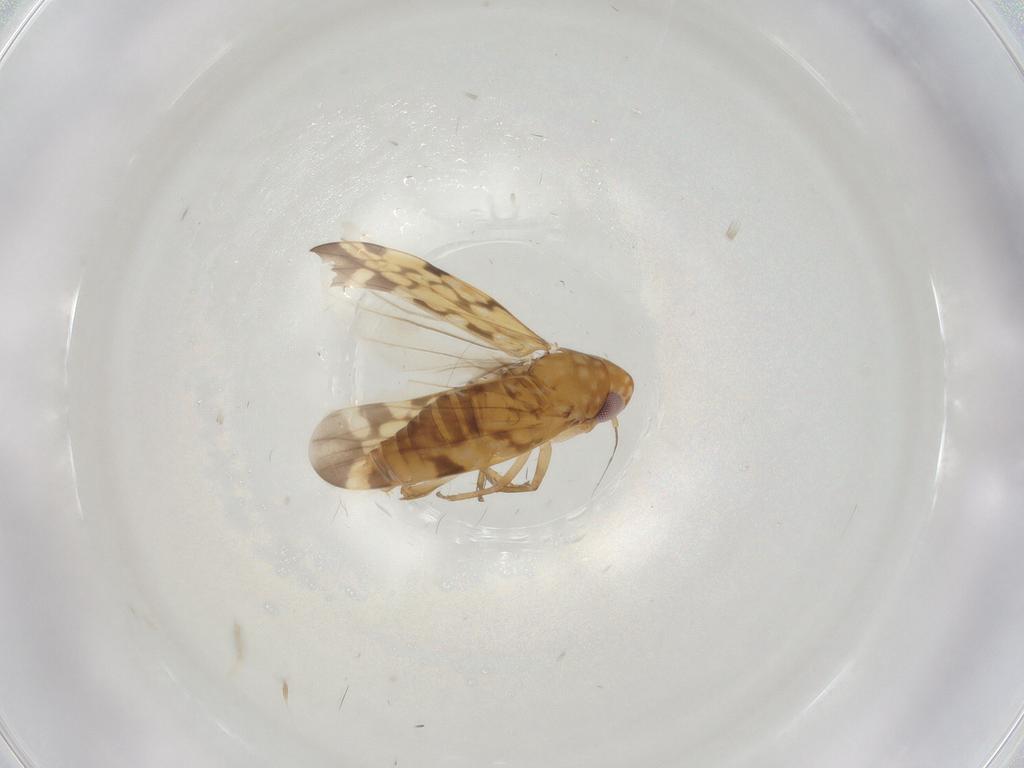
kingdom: Animalia
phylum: Arthropoda
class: Insecta
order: Hemiptera
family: Cicadellidae
